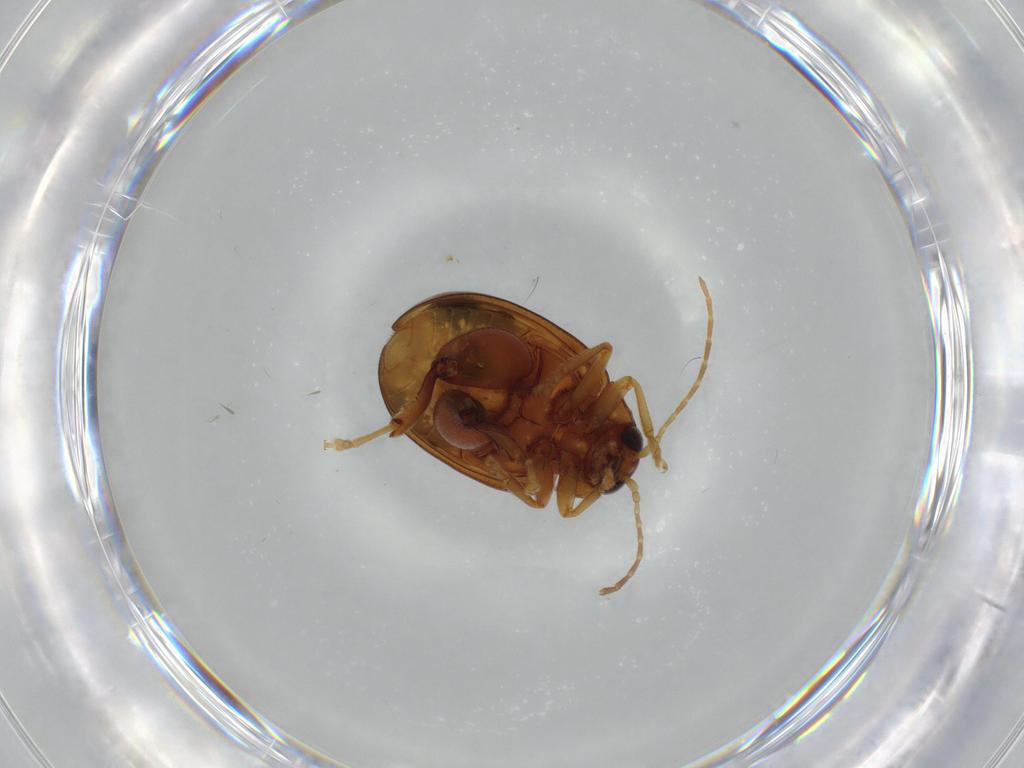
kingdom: Animalia
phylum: Arthropoda
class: Insecta
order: Coleoptera
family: Chrysomelidae
